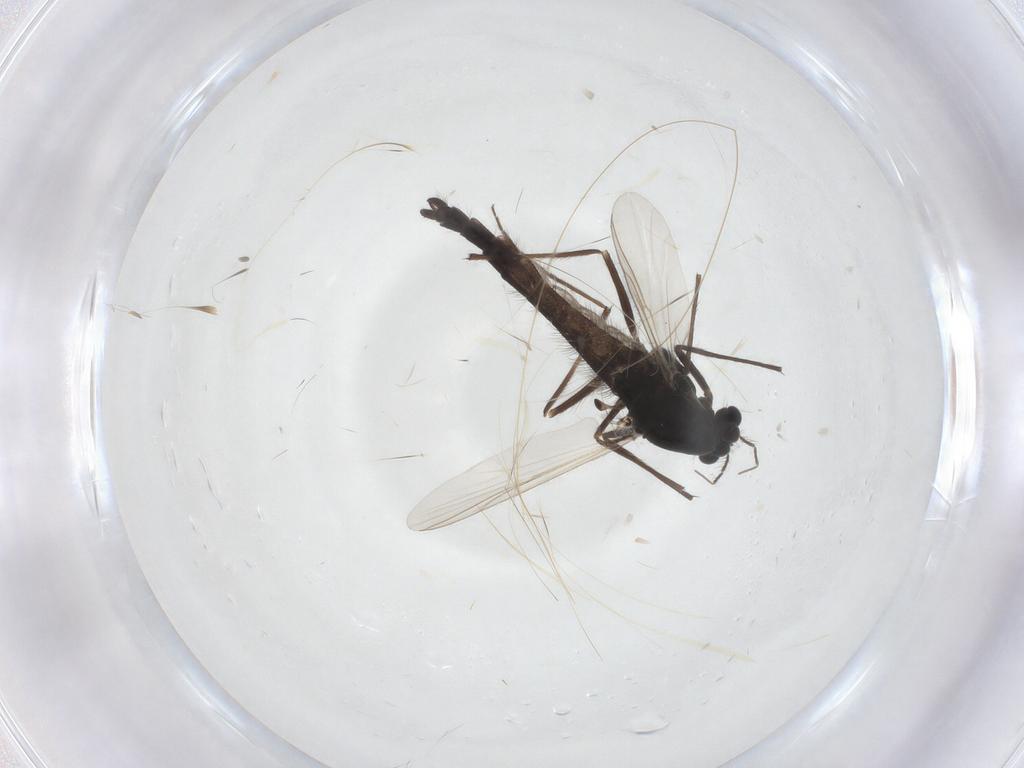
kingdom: Animalia
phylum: Arthropoda
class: Insecta
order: Diptera
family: Chironomidae
